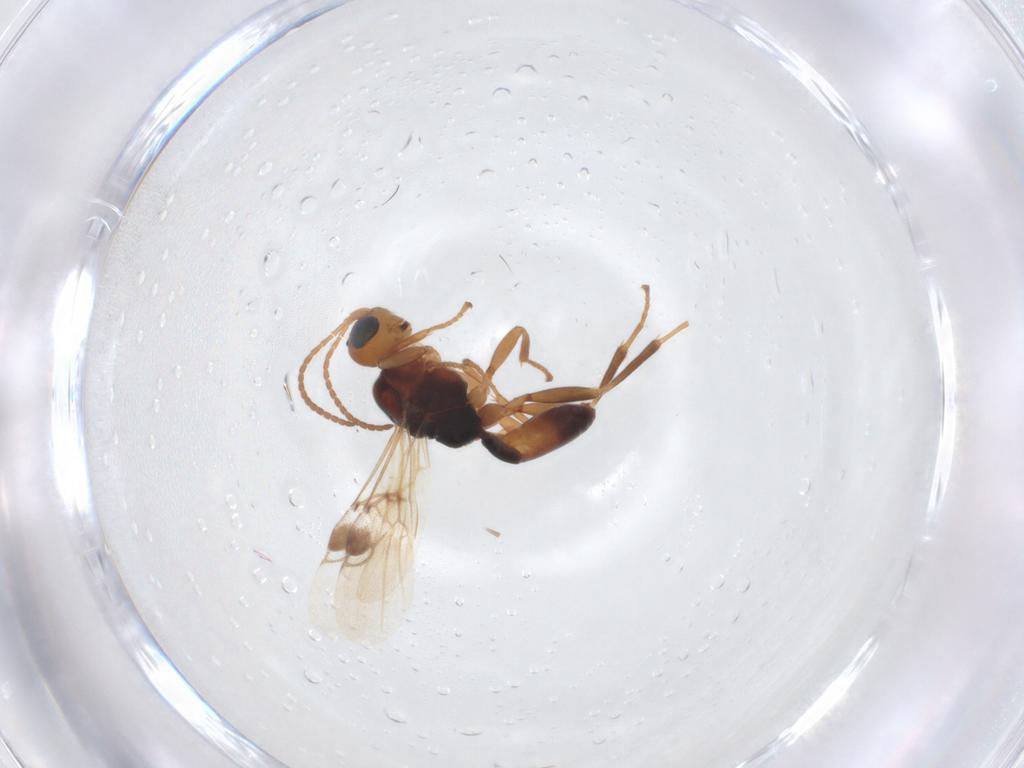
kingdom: Animalia
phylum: Arthropoda
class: Insecta
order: Hymenoptera
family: Braconidae
